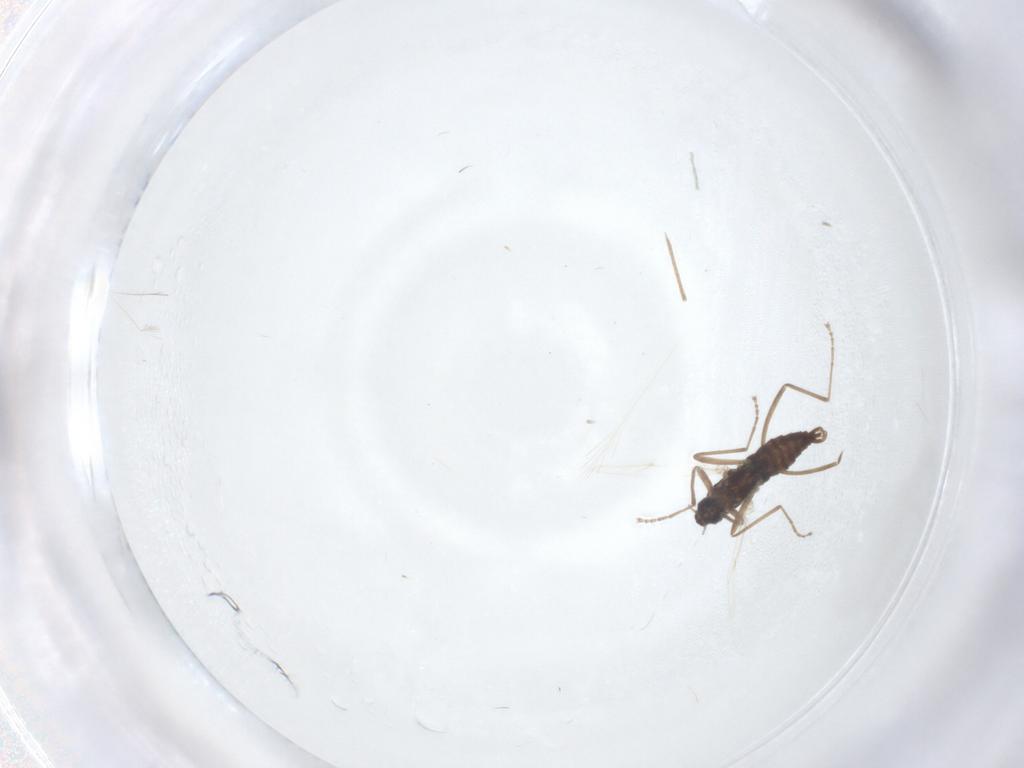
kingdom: Animalia
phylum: Arthropoda
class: Insecta
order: Diptera
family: Cecidomyiidae
